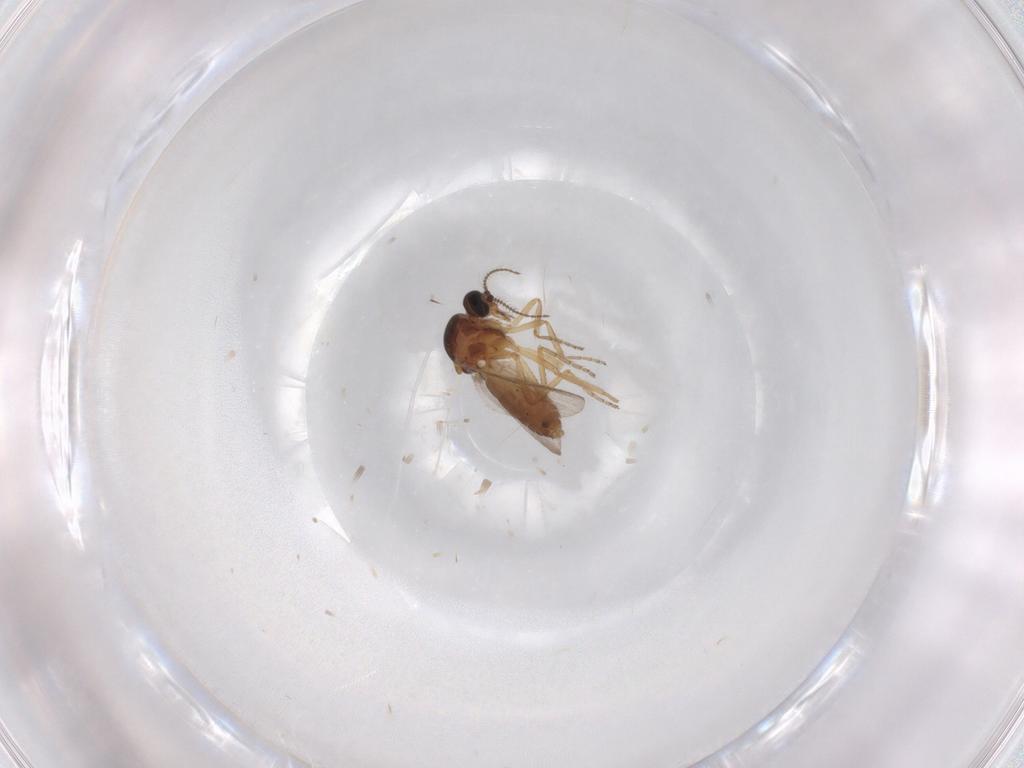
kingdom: Animalia
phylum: Arthropoda
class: Insecta
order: Diptera
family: Ceratopogonidae
